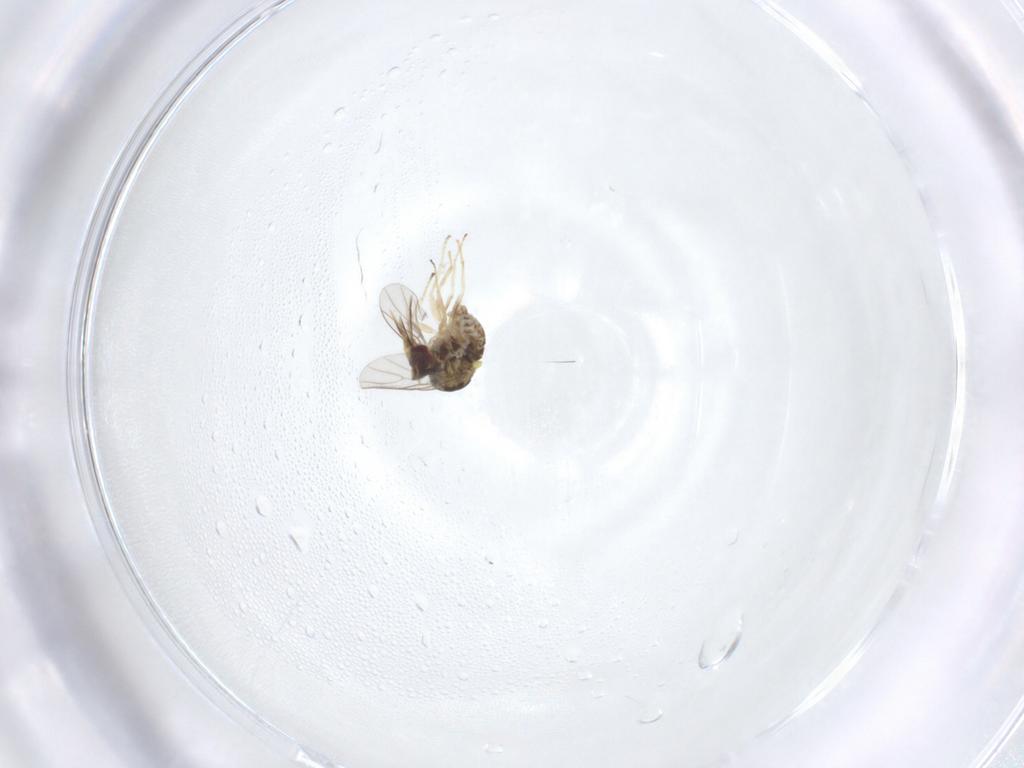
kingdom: Animalia
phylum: Arthropoda
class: Insecta
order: Diptera
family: Bombyliidae
